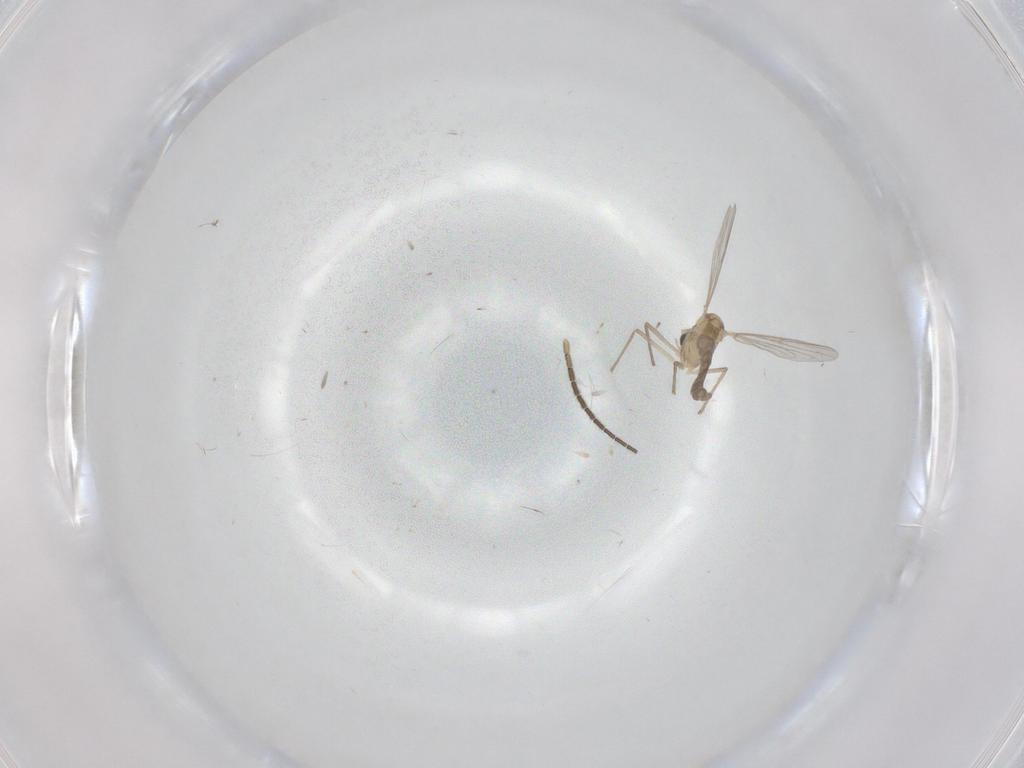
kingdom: Animalia
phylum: Arthropoda
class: Insecta
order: Diptera
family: Chironomidae
